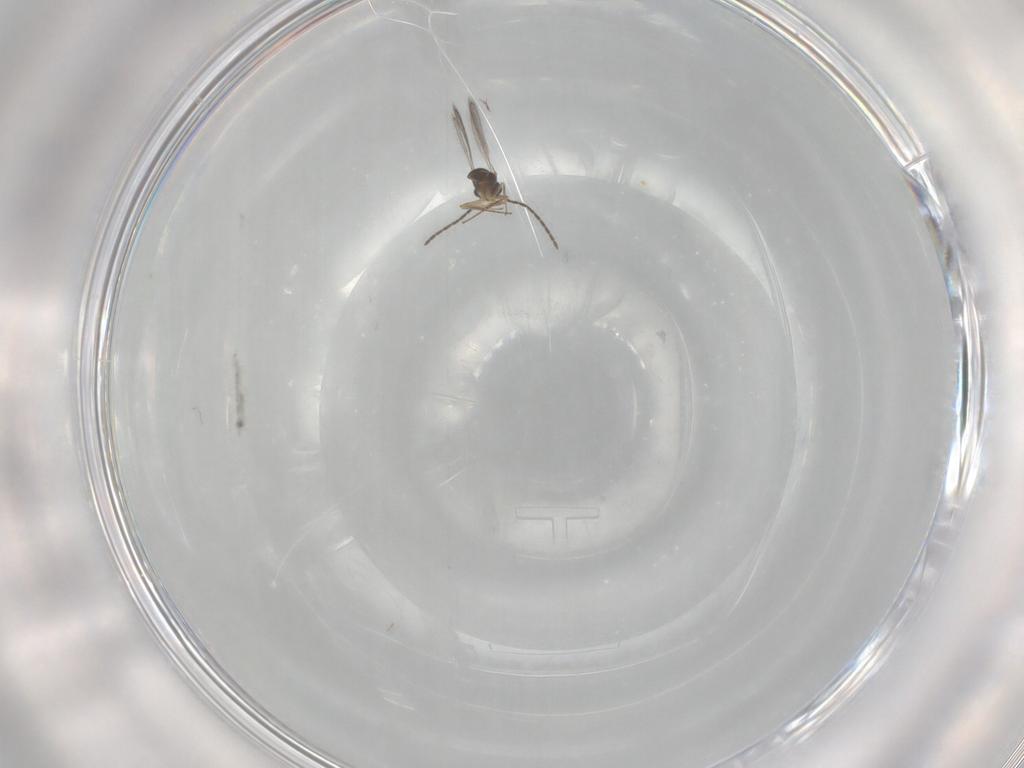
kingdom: Animalia
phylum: Arthropoda
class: Insecta
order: Hymenoptera
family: Scelionidae
